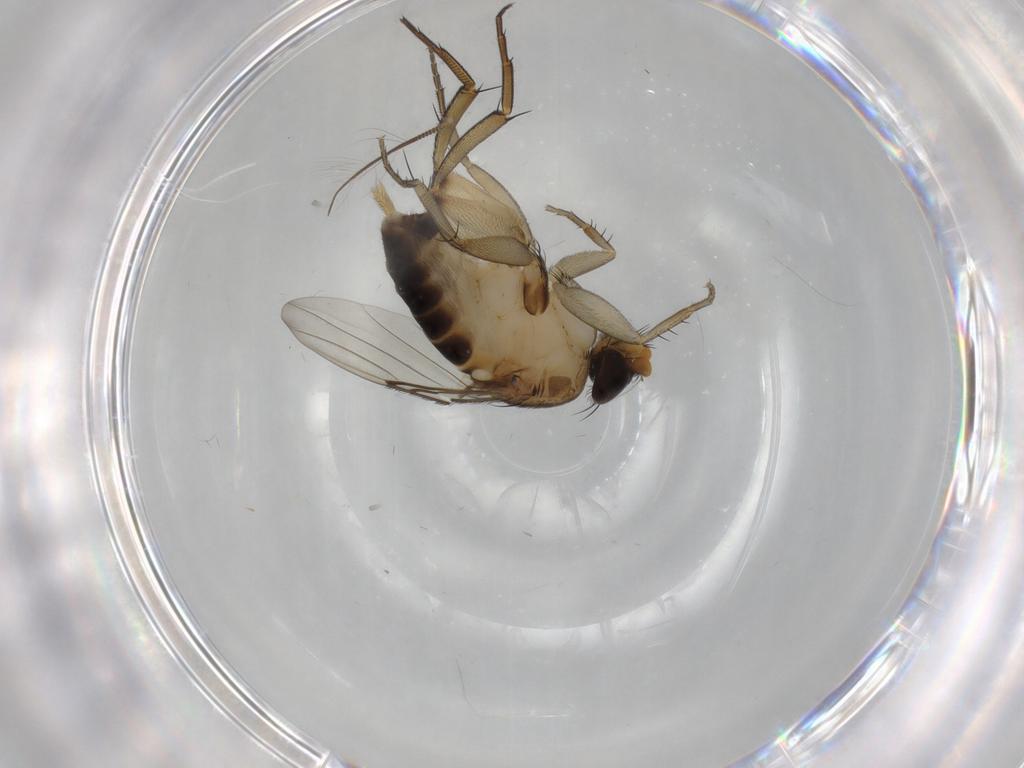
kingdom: Animalia
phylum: Arthropoda
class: Insecta
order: Diptera
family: Phoridae
